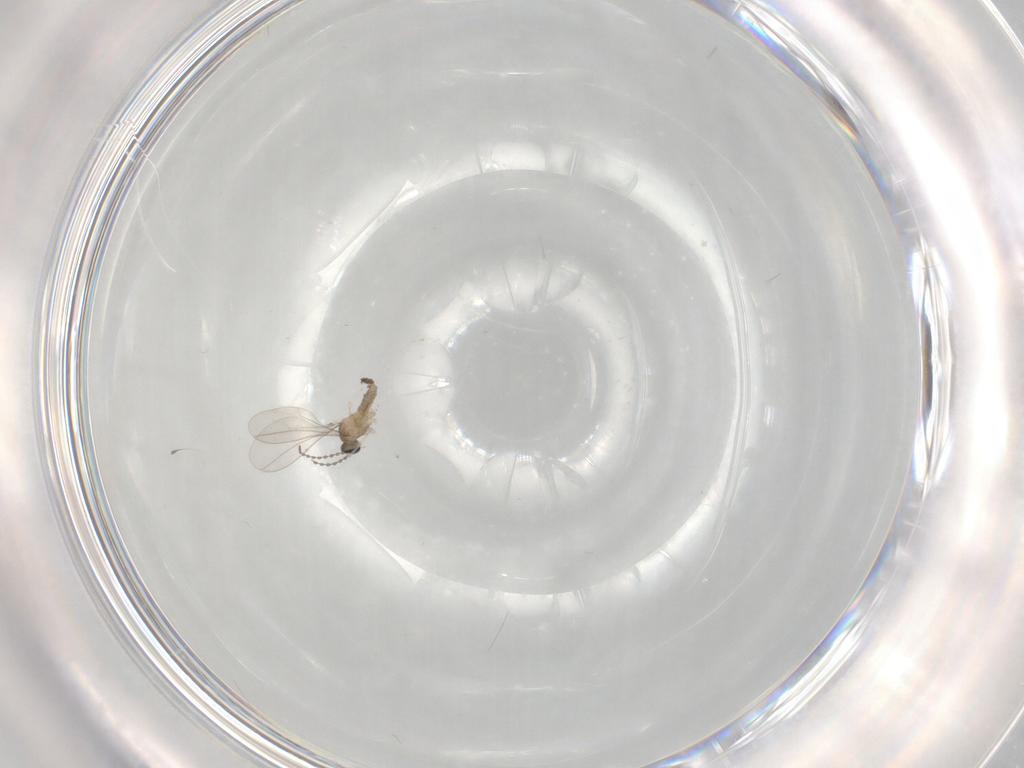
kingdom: Animalia
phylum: Arthropoda
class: Insecta
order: Diptera
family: Cecidomyiidae
